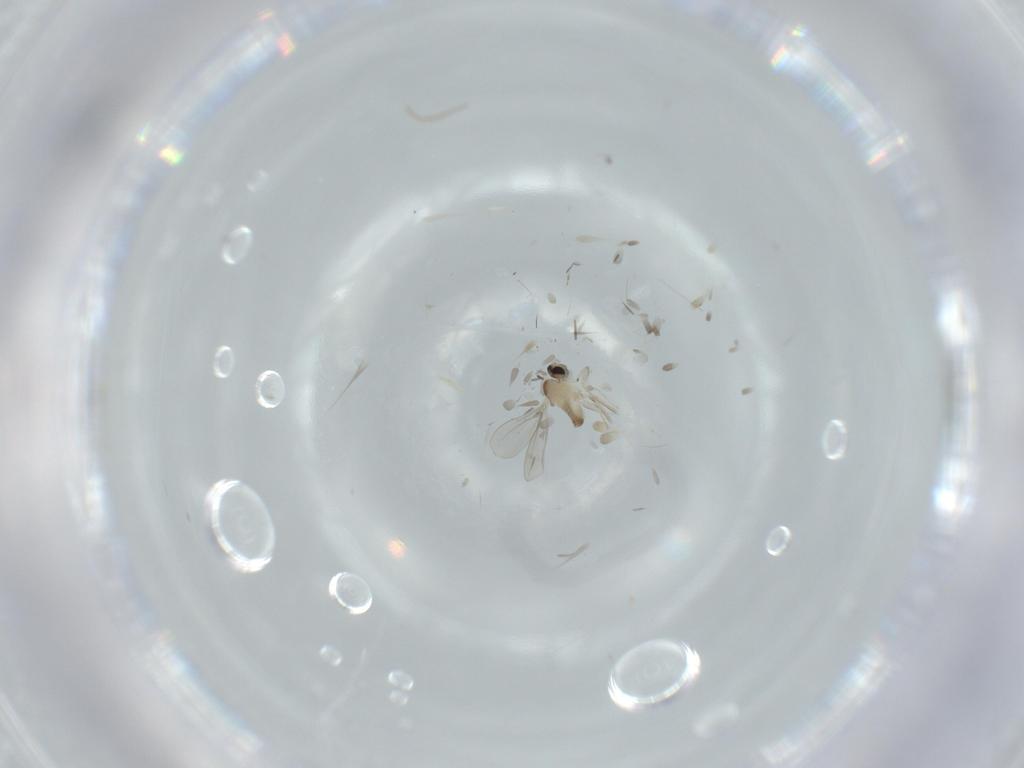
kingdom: Animalia
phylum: Arthropoda
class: Insecta
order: Diptera
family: Cecidomyiidae
